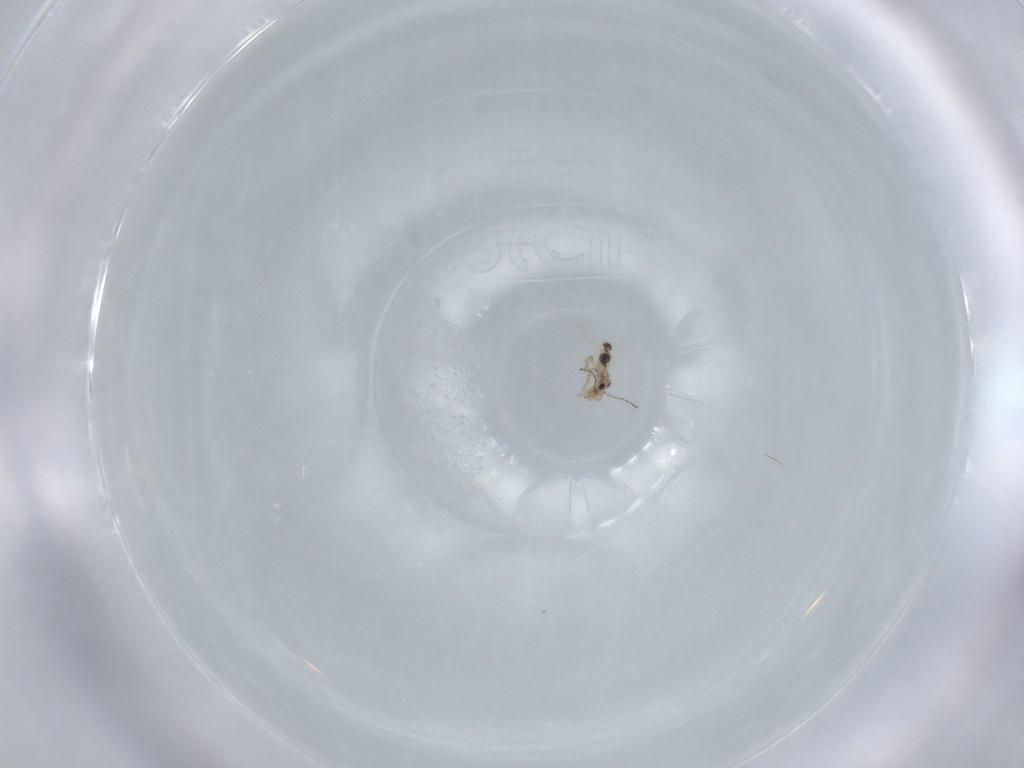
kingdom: Animalia
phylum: Arthropoda
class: Insecta
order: Psocodea
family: Lepidopsocidae
